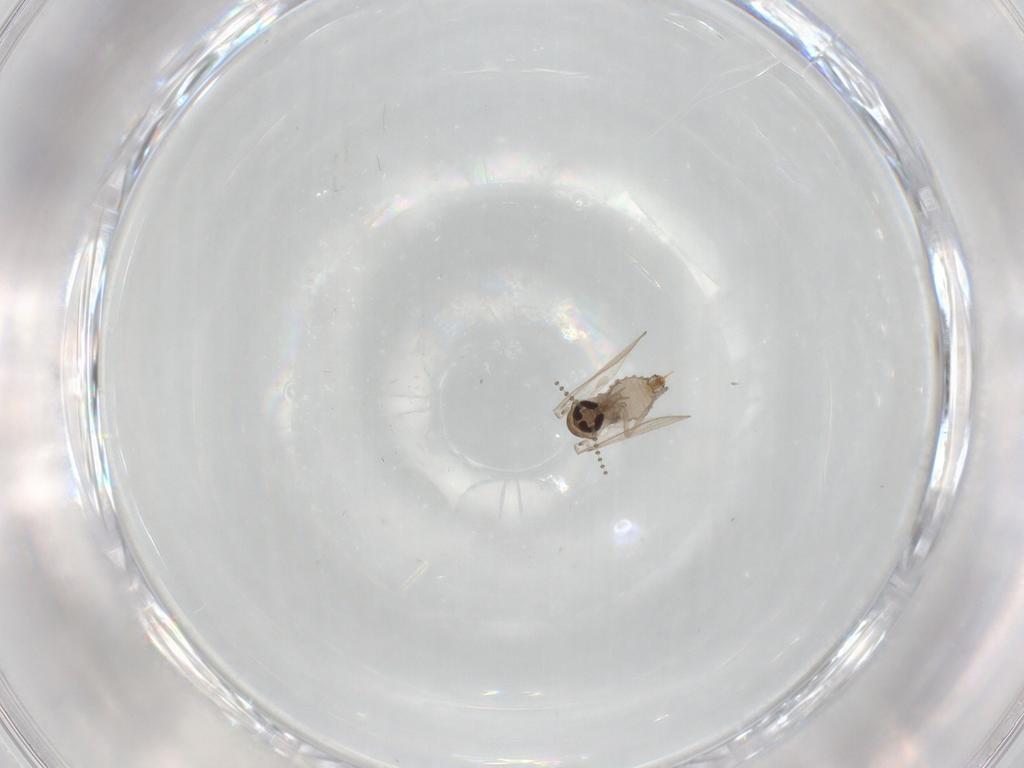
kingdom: Animalia
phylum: Arthropoda
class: Insecta
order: Diptera
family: Psychodidae
